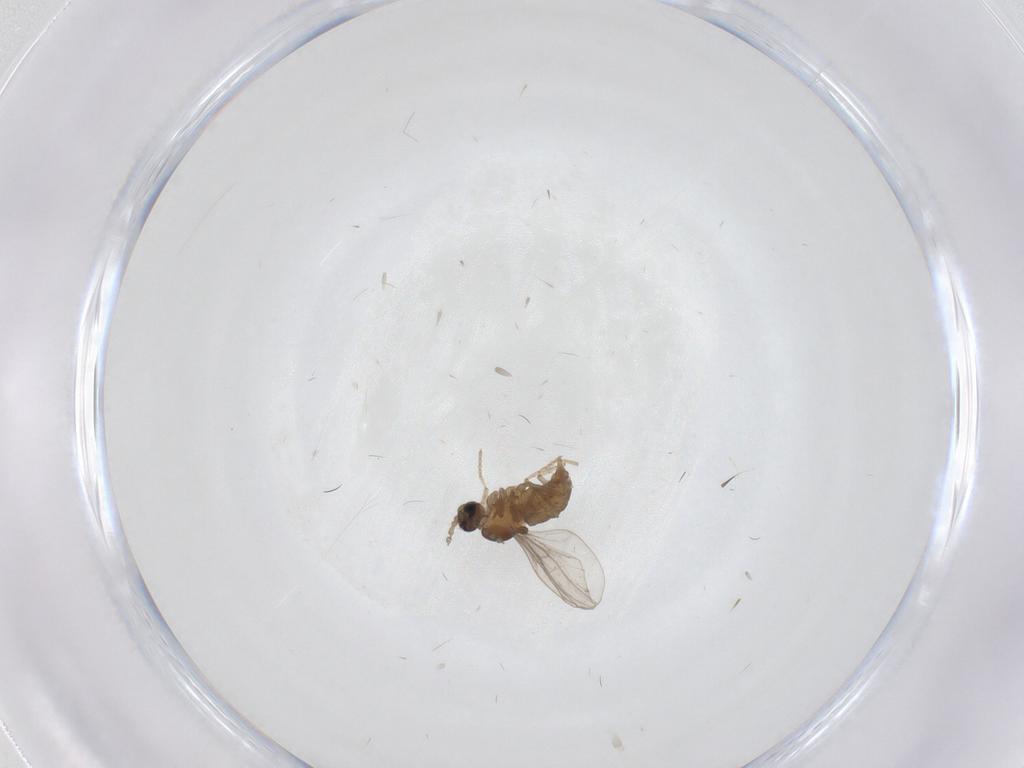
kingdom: Animalia
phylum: Arthropoda
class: Insecta
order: Diptera
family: Cecidomyiidae
